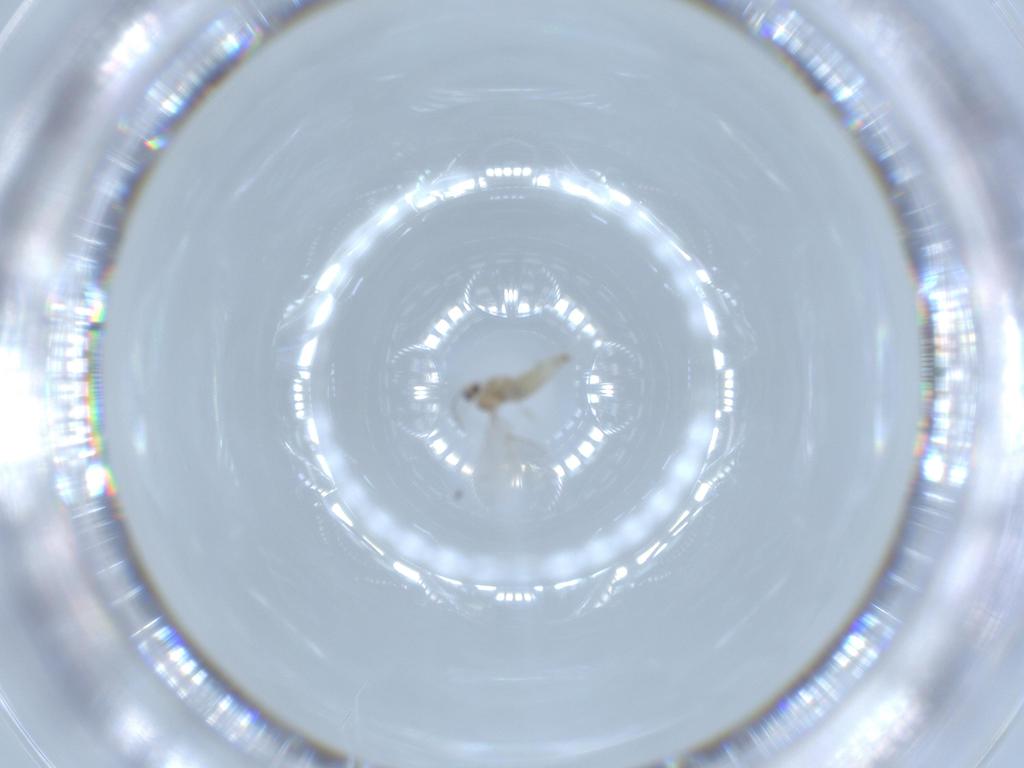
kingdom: Animalia
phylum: Arthropoda
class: Insecta
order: Diptera
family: Cecidomyiidae
